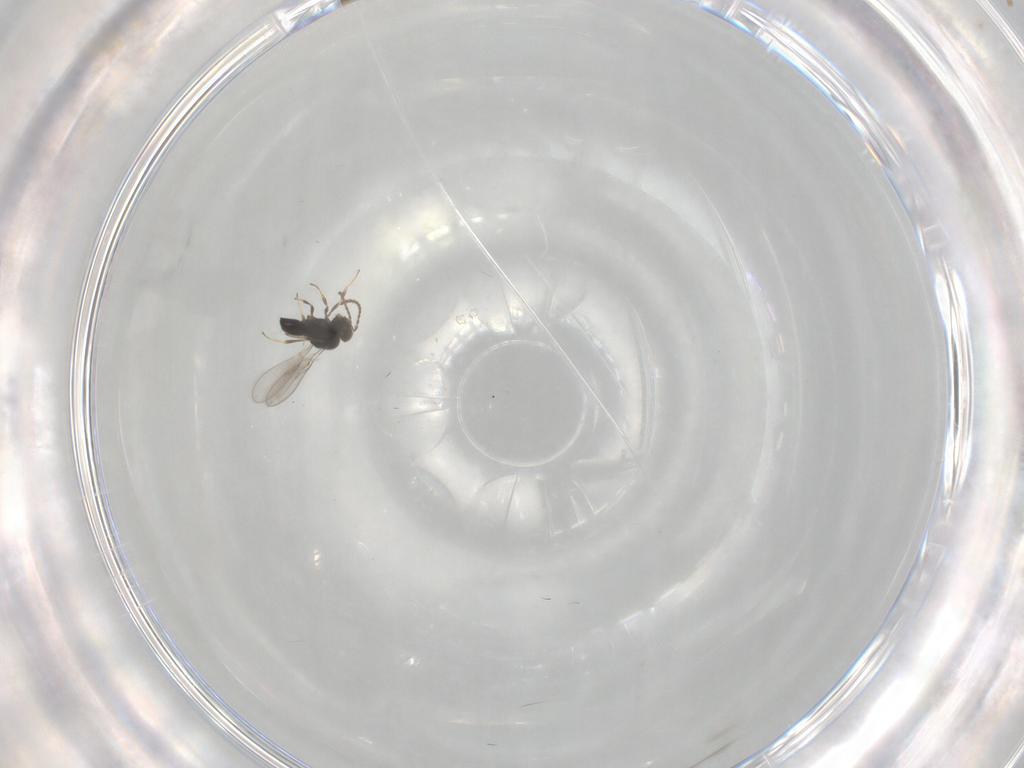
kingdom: Animalia
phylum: Arthropoda
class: Insecta
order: Hymenoptera
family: Scelionidae
